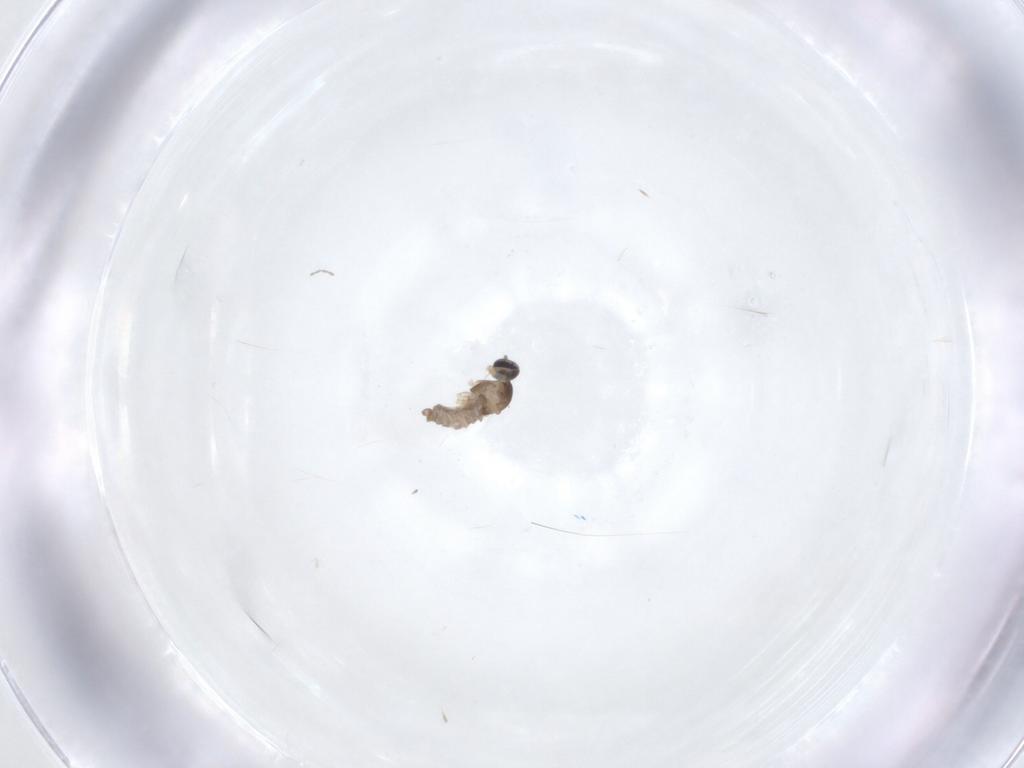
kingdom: Animalia
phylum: Arthropoda
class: Insecta
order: Diptera
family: Cecidomyiidae
